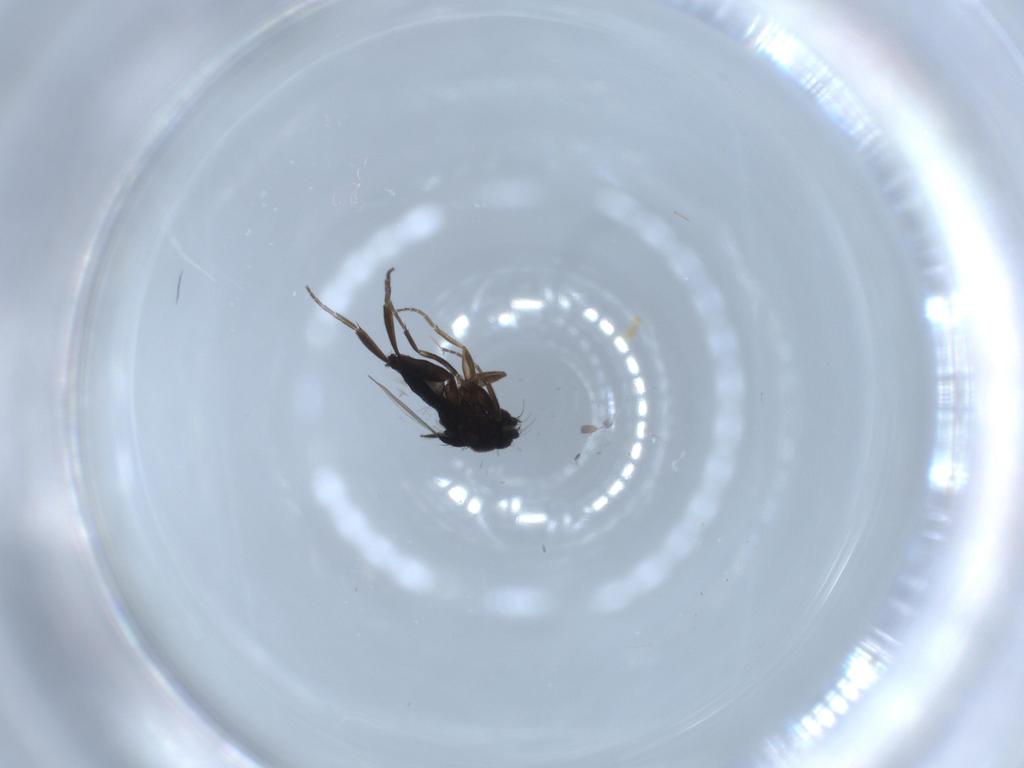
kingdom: Animalia
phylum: Arthropoda
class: Insecta
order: Diptera
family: Phoridae
